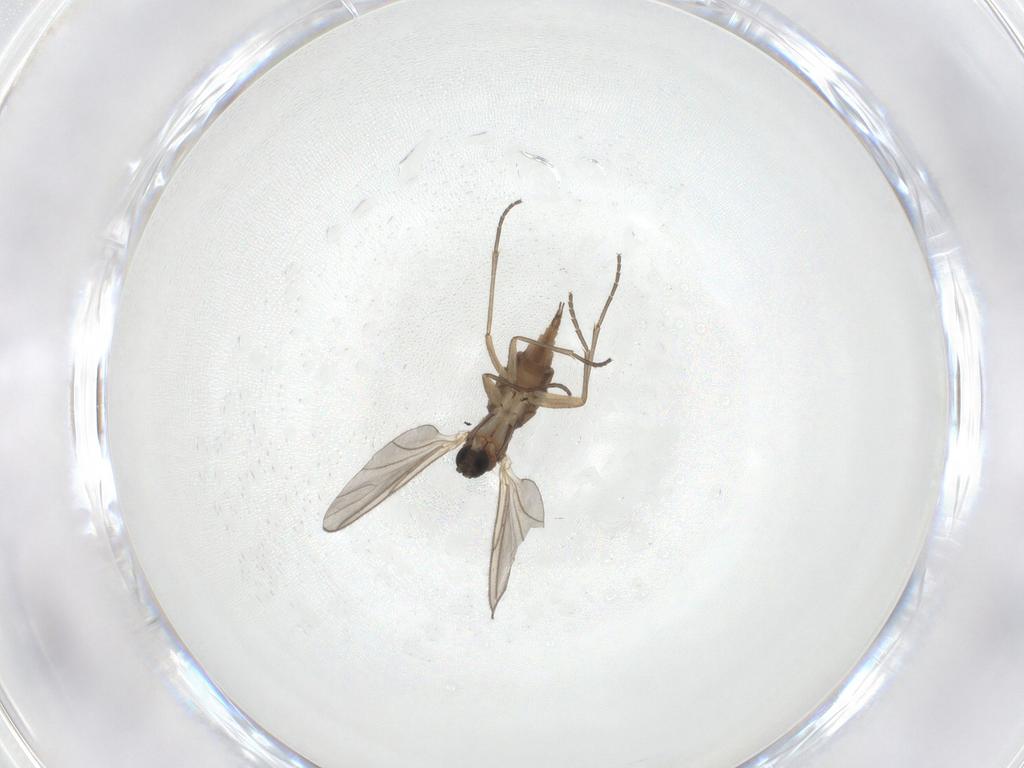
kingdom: Animalia
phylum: Arthropoda
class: Insecta
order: Diptera
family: Sciaridae
